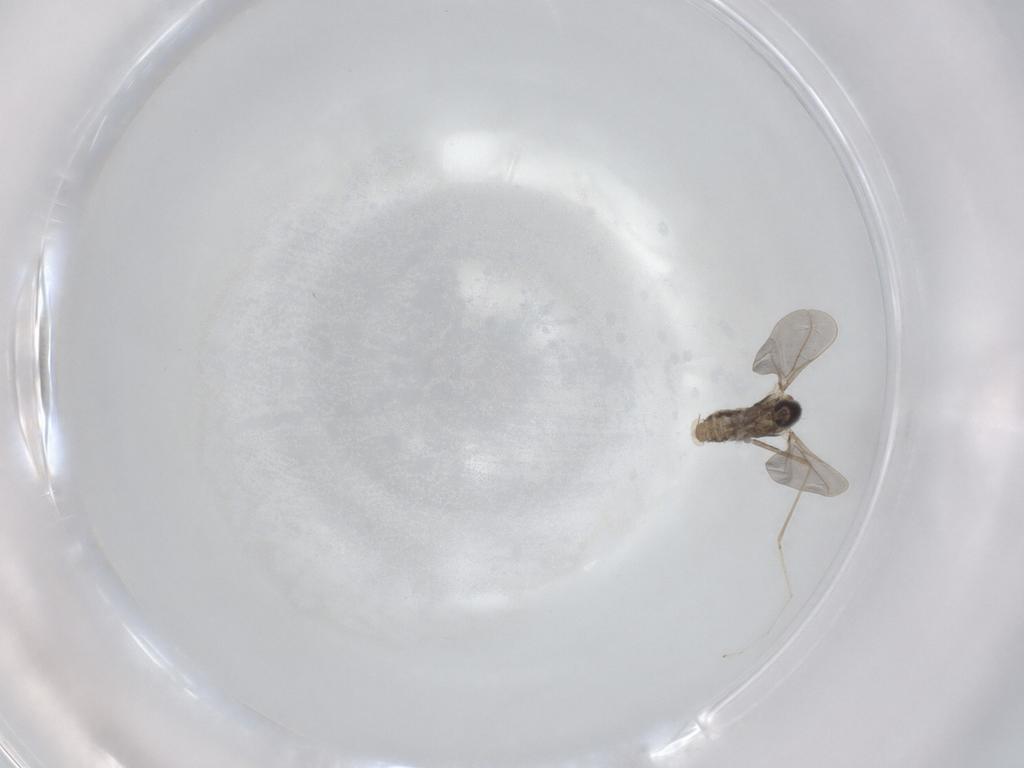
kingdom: Animalia
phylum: Arthropoda
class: Insecta
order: Diptera
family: Cecidomyiidae
